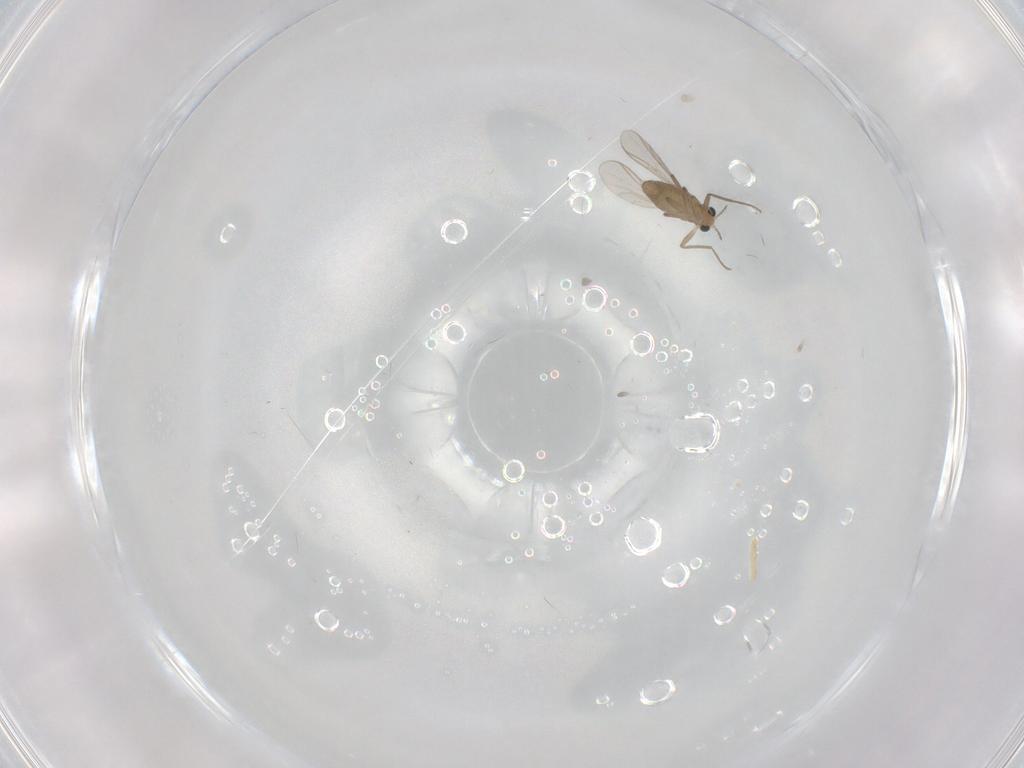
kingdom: Animalia
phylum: Arthropoda
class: Insecta
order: Diptera
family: Chironomidae
